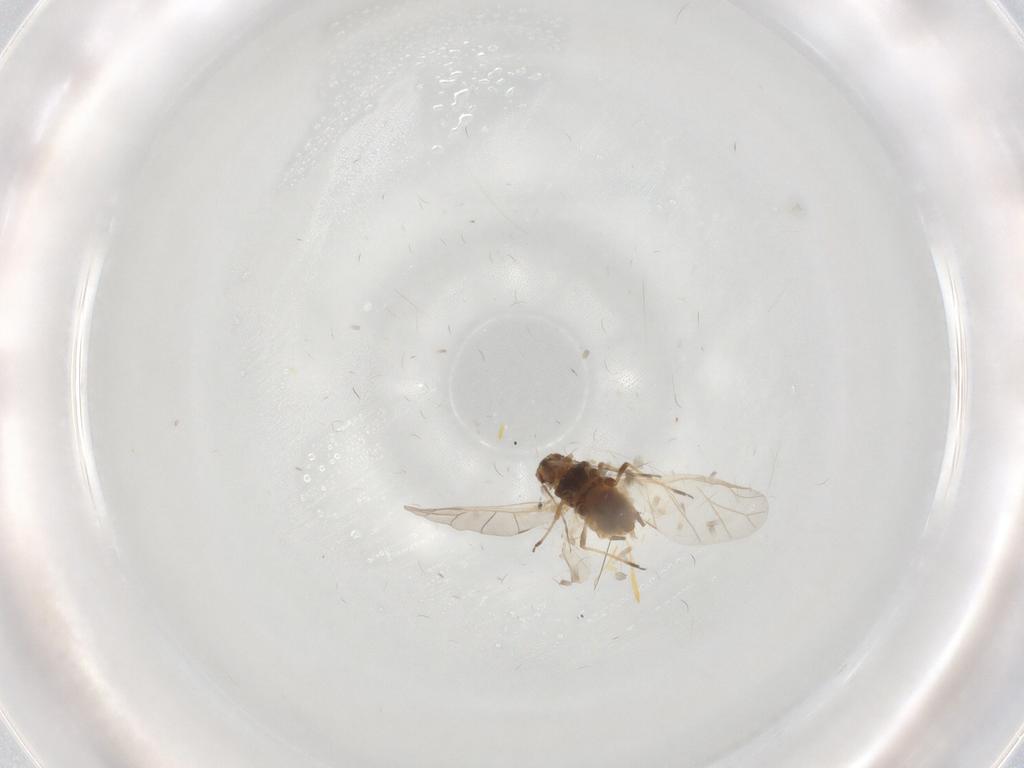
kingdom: Animalia
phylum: Arthropoda
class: Insecta
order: Hemiptera
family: Aphididae
